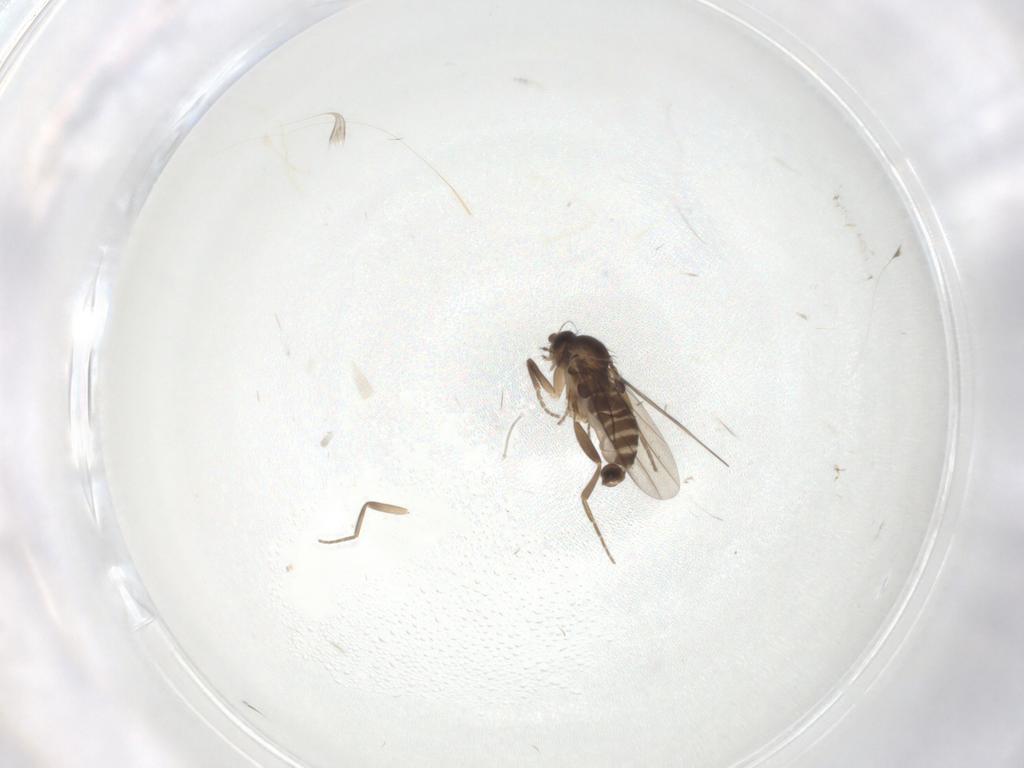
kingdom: Animalia
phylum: Arthropoda
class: Insecta
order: Diptera
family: Phoridae
